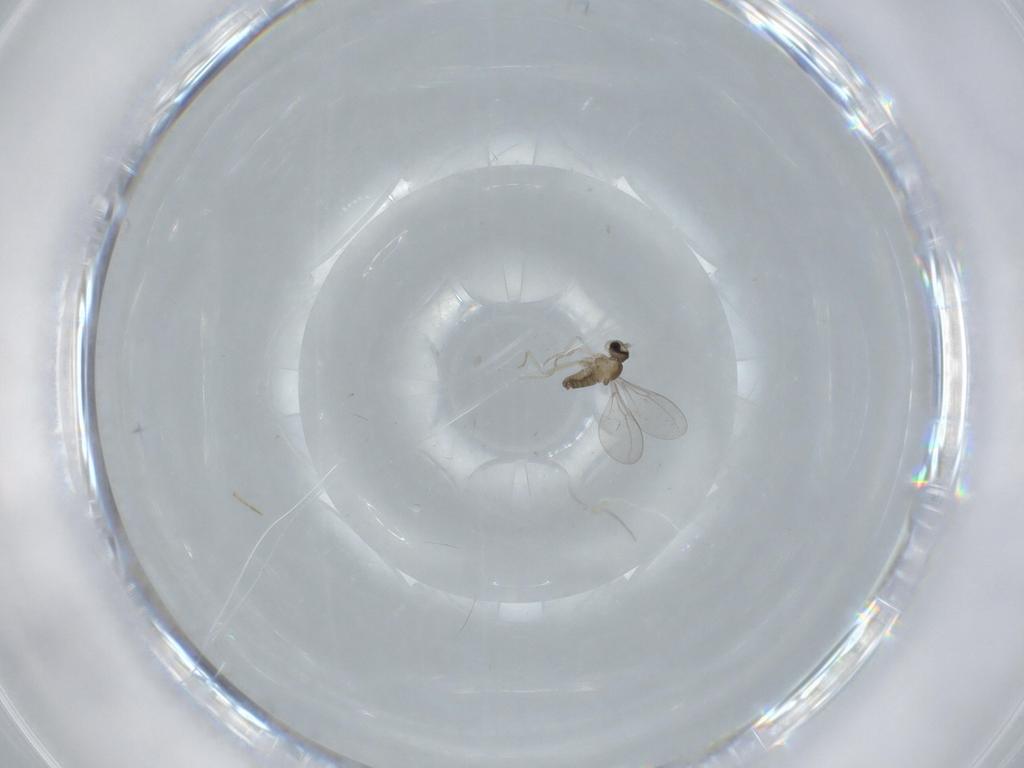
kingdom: Animalia
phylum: Arthropoda
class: Insecta
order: Diptera
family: Cecidomyiidae
